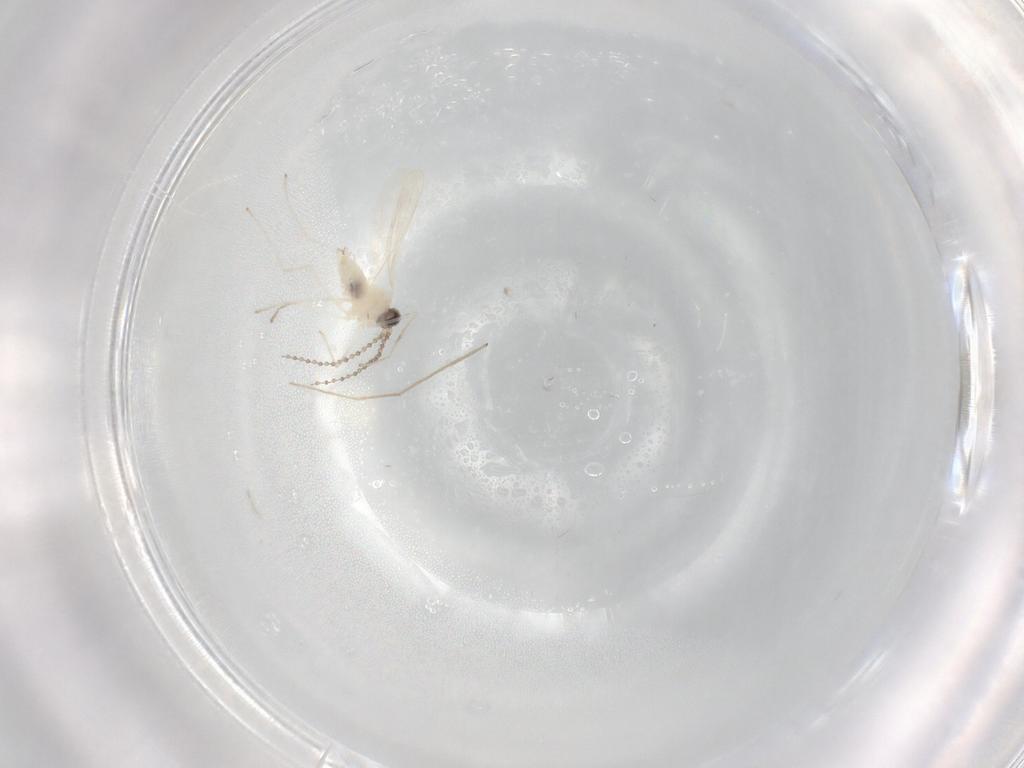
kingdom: Animalia
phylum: Arthropoda
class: Insecta
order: Diptera
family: Chironomidae
